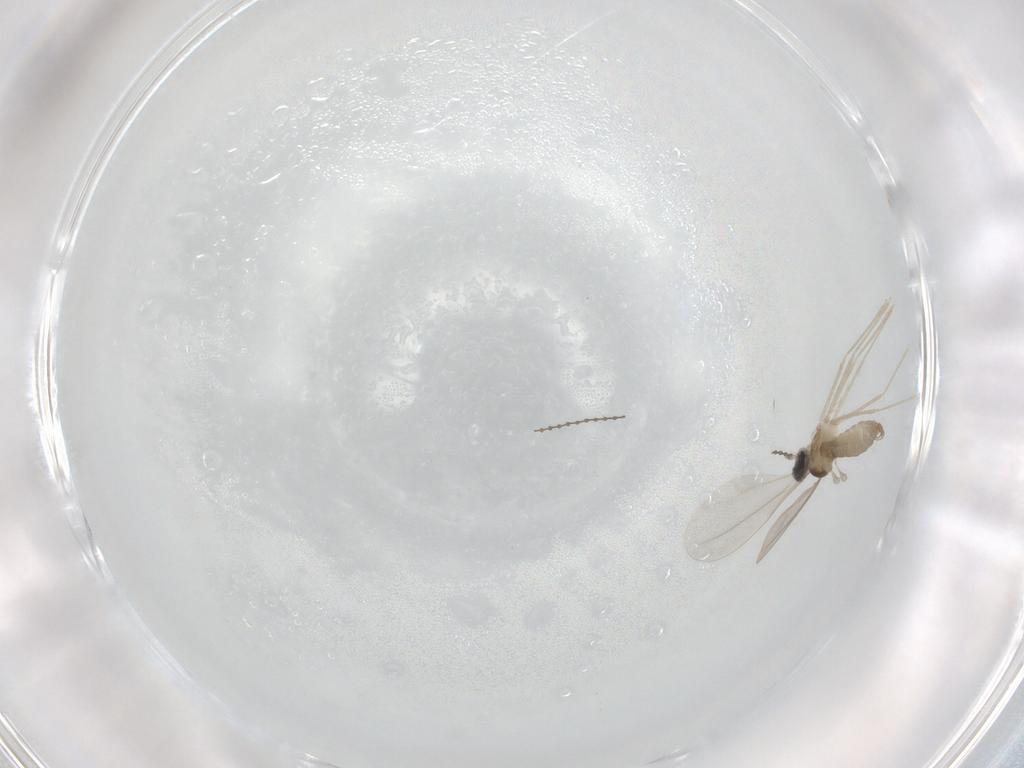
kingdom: Animalia
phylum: Arthropoda
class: Insecta
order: Diptera
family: Cecidomyiidae
